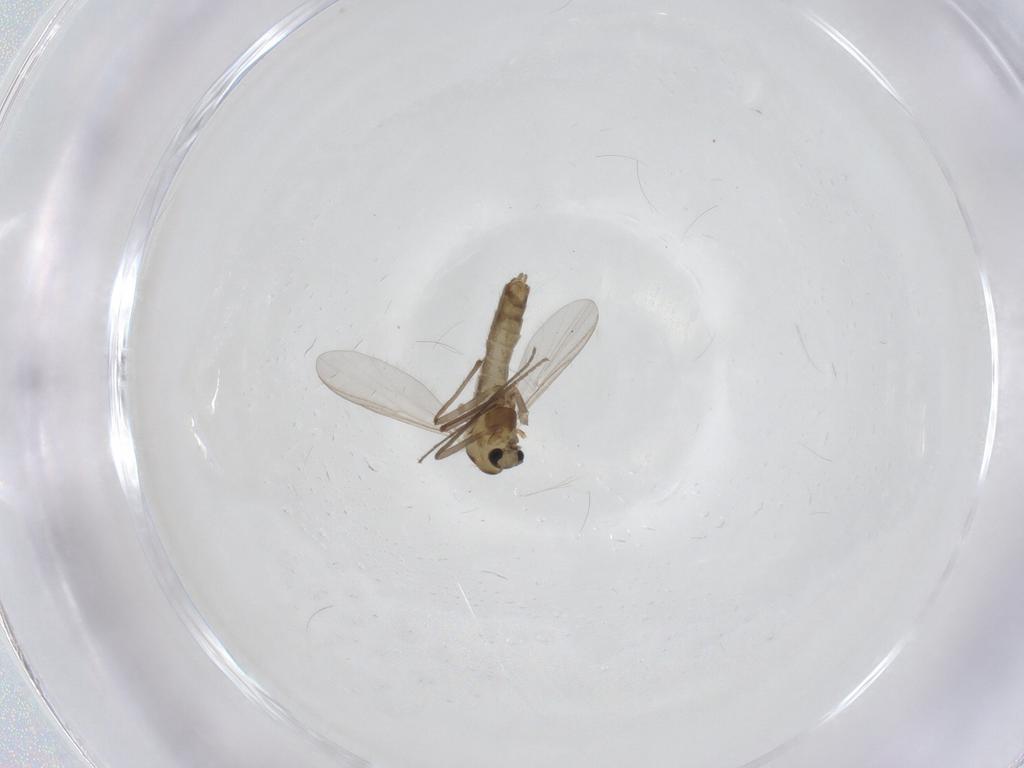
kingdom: Animalia
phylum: Arthropoda
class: Insecta
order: Diptera
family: Chironomidae
